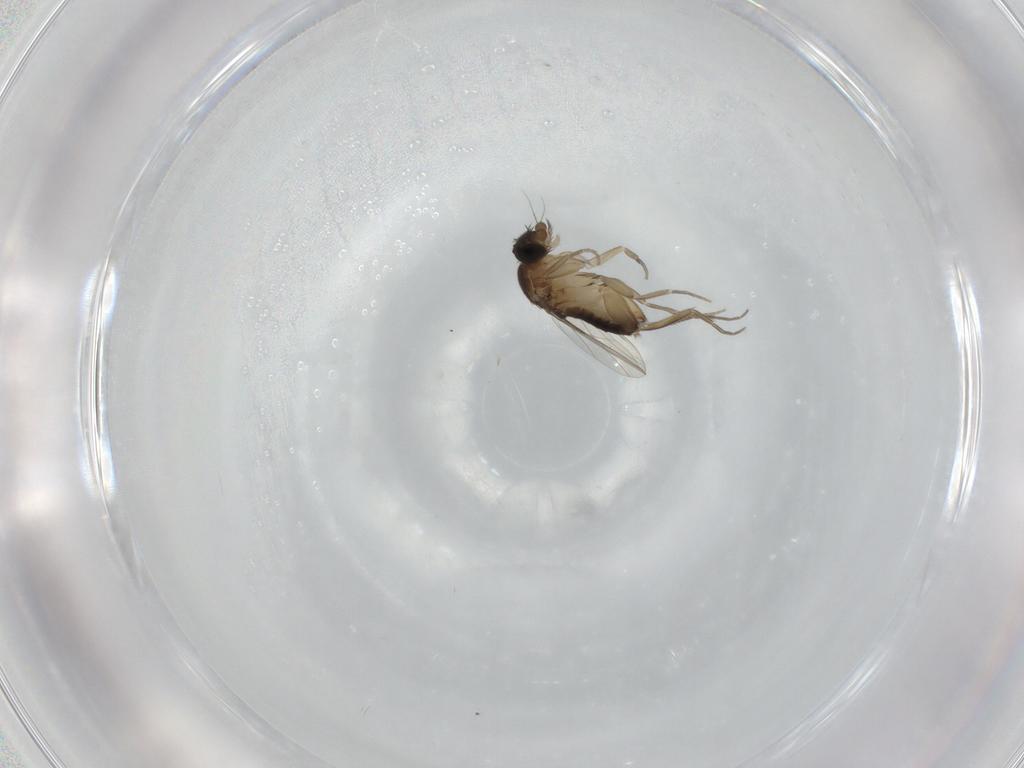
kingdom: Animalia
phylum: Arthropoda
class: Insecta
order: Diptera
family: Phoridae
